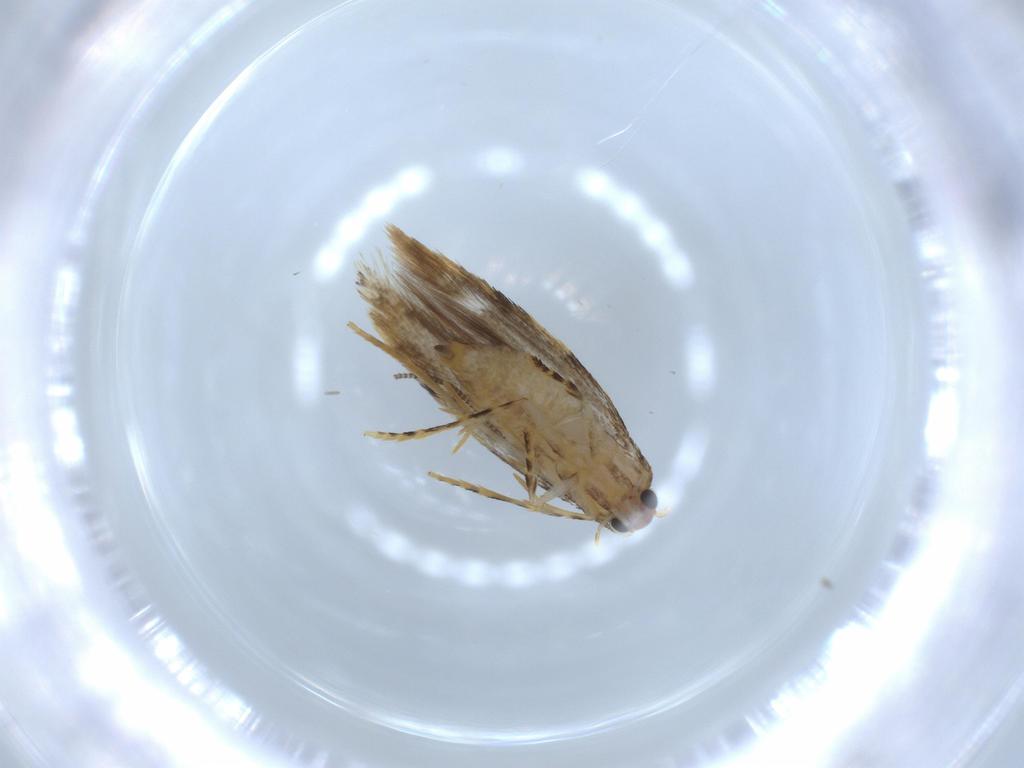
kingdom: Animalia
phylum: Arthropoda
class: Insecta
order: Lepidoptera
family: Tineidae
